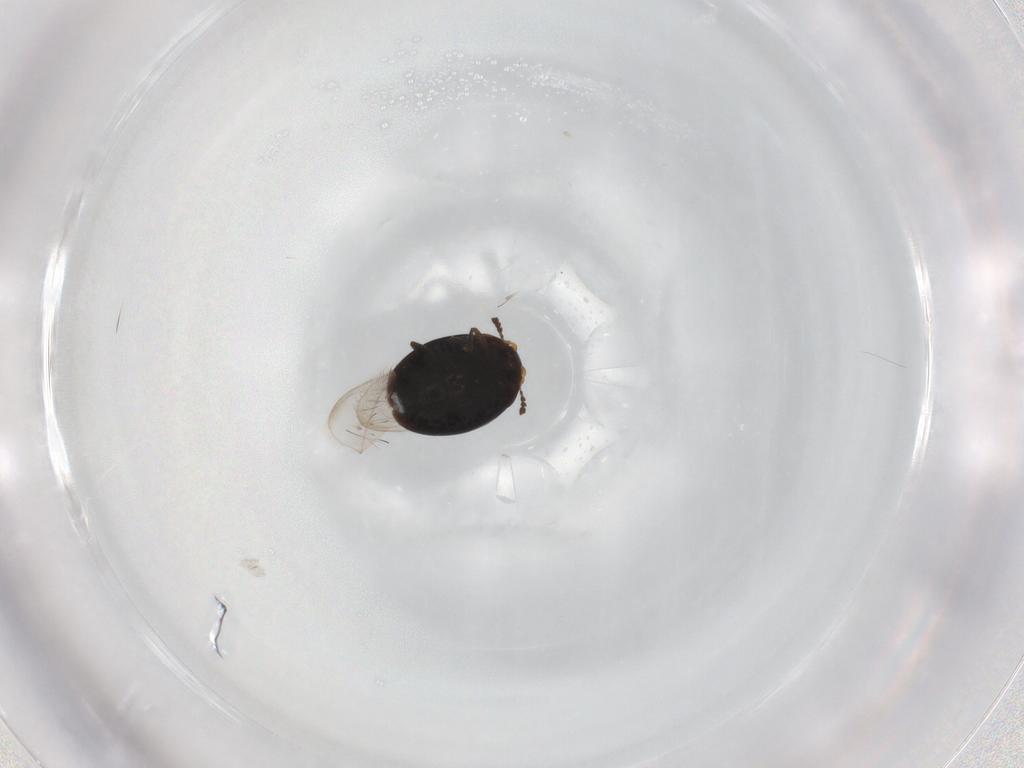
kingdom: Animalia
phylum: Arthropoda
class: Insecta
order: Coleoptera
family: Corylophidae
